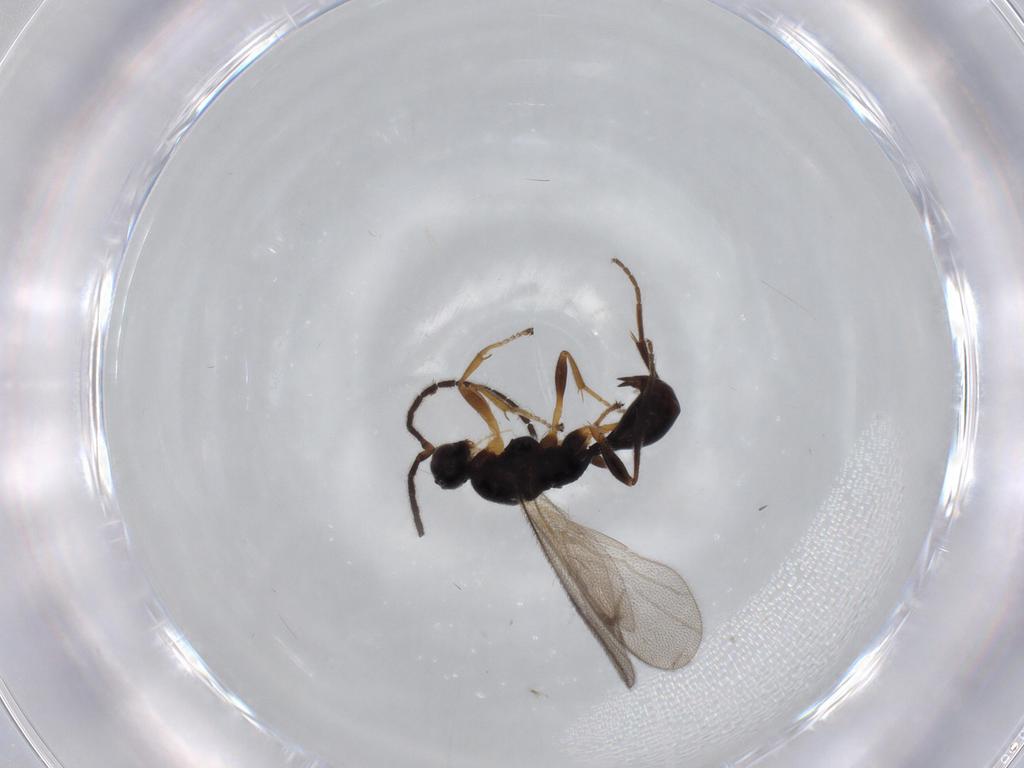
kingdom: Animalia
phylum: Arthropoda
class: Insecta
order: Hymenoptera
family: Proctotrupidae
